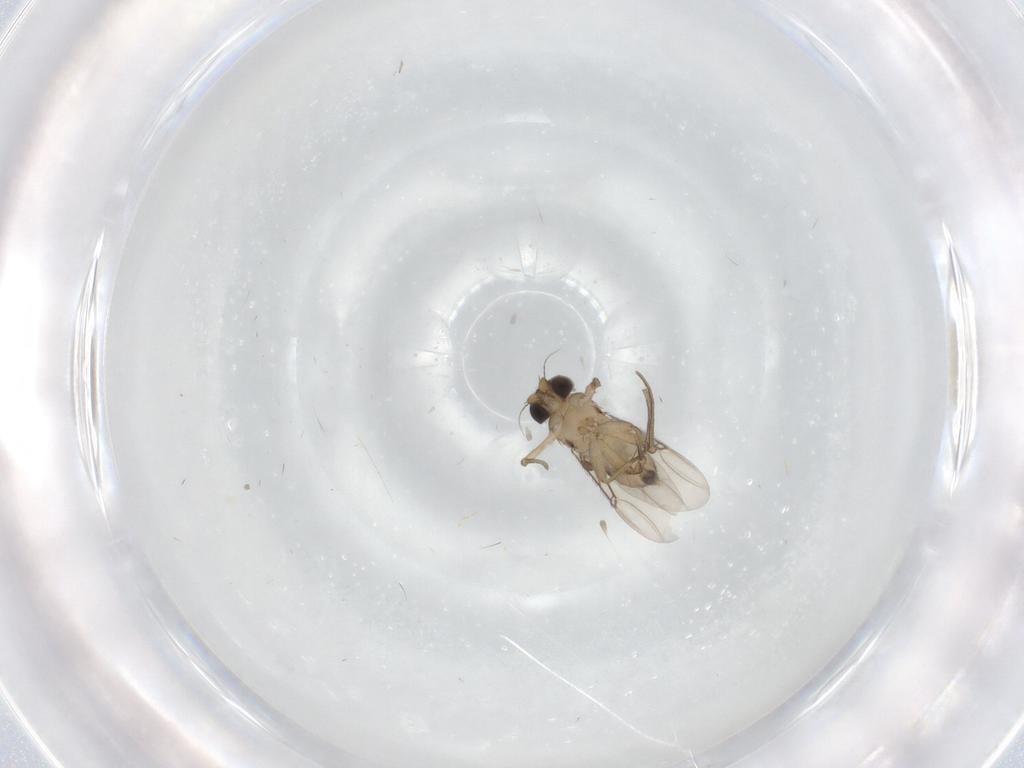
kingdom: Animalia
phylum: Arthropoda
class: Insecta
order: Diptera
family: Phoridae
